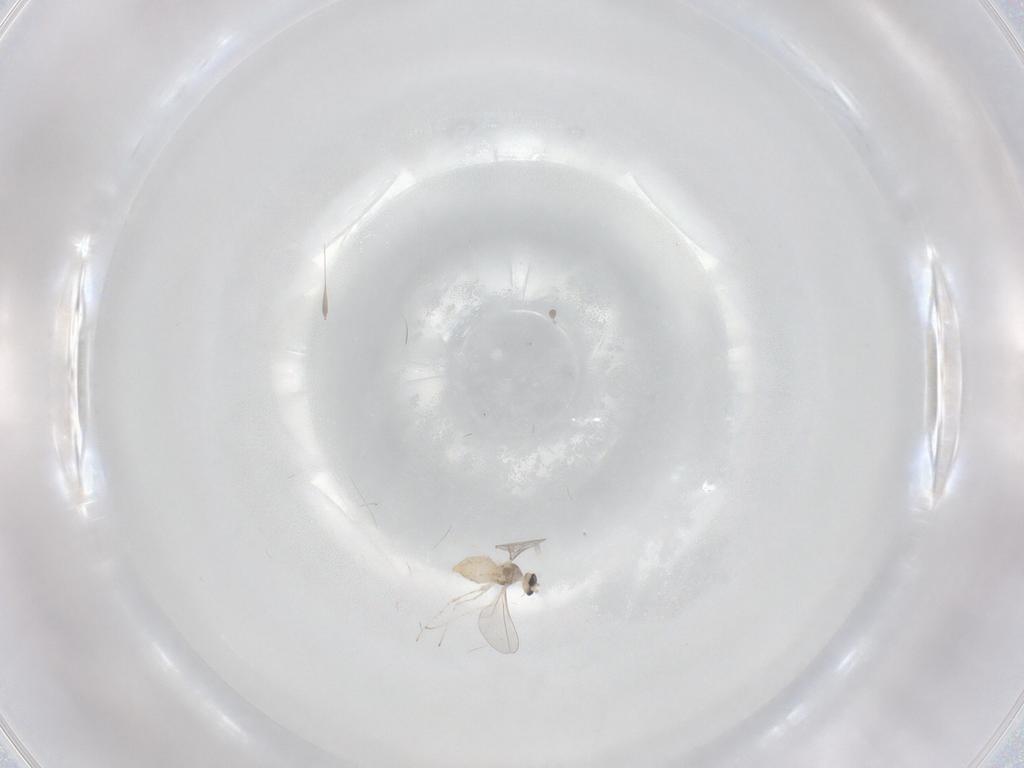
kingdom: Animalia
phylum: Arthropoda
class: Insecta
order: Diptera
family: Cecidomyiidae
